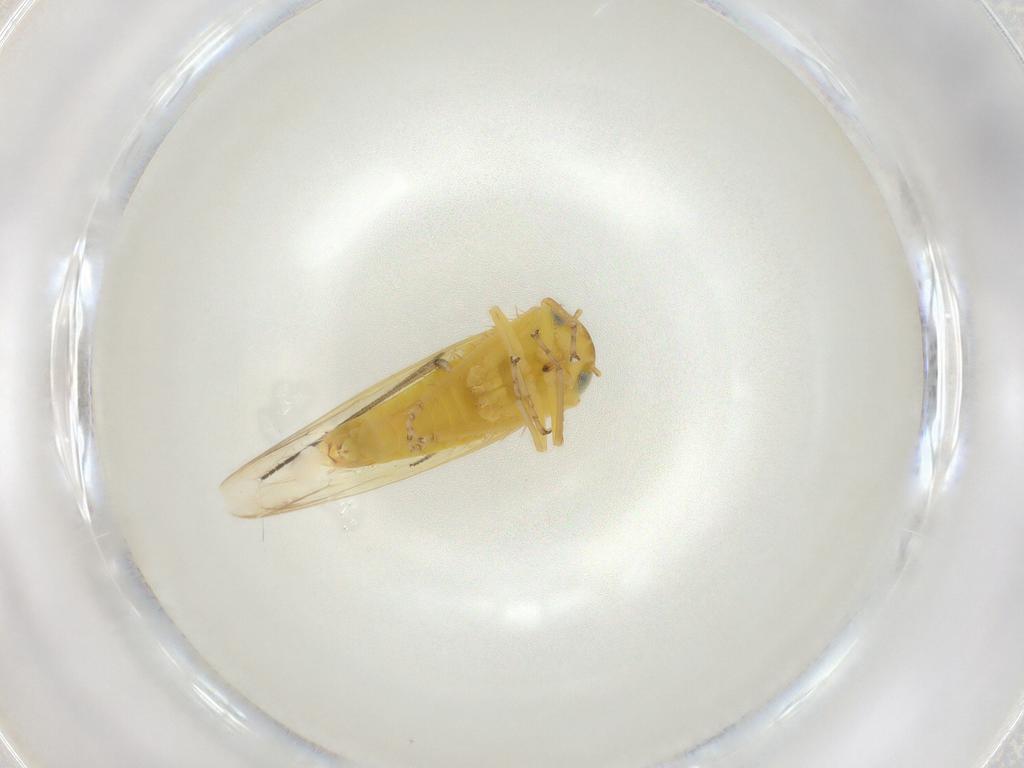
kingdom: Animalia
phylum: Arthropoda
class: Insecta
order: Hemiptera
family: Cicadellidae
